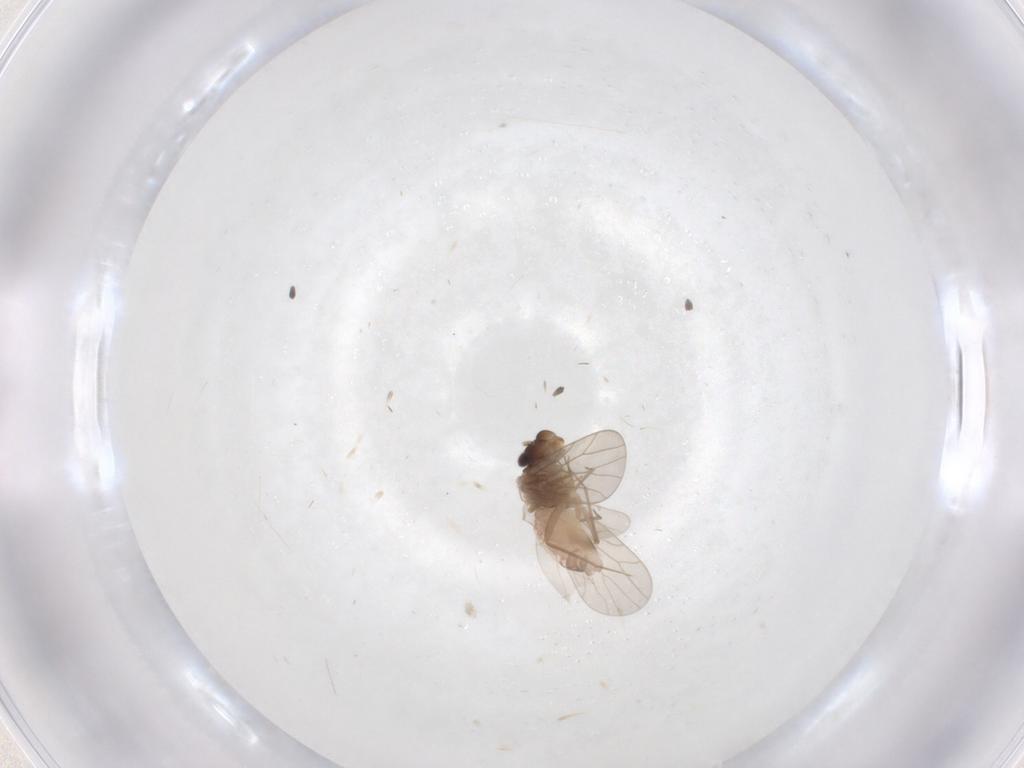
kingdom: Animalia
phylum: Arthropoda
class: Insecta
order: Psocodea
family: Lepidopsocidae
